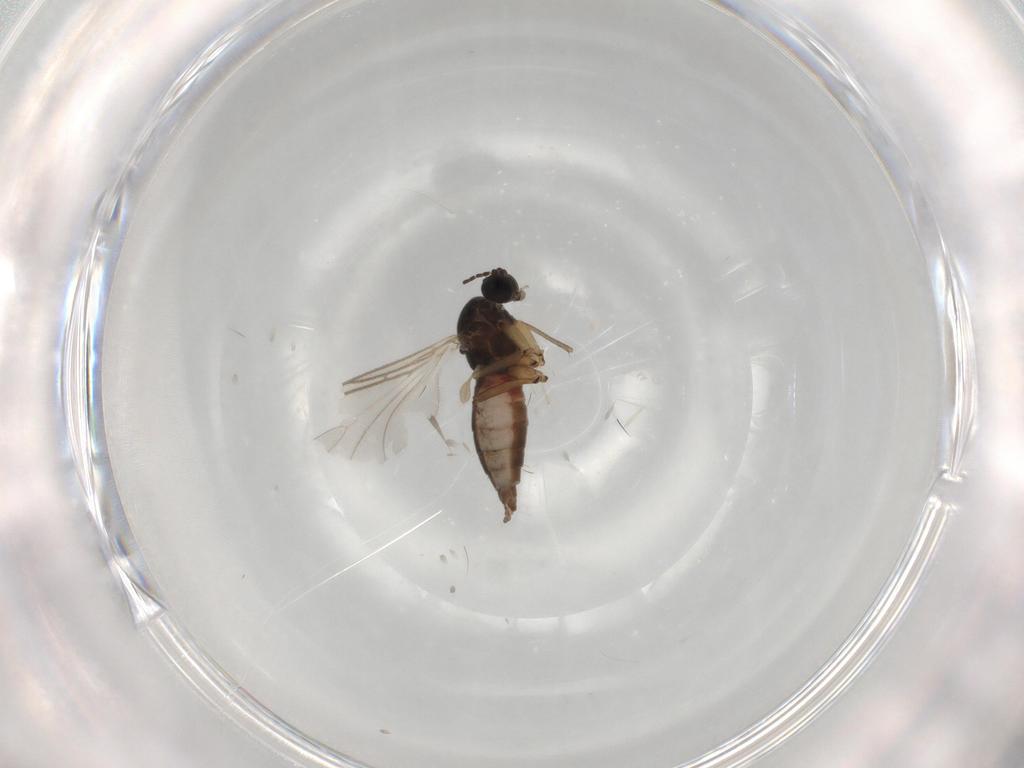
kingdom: Animalia
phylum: Arthropoda
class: Insecta
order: Diptera
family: Sciaridae
